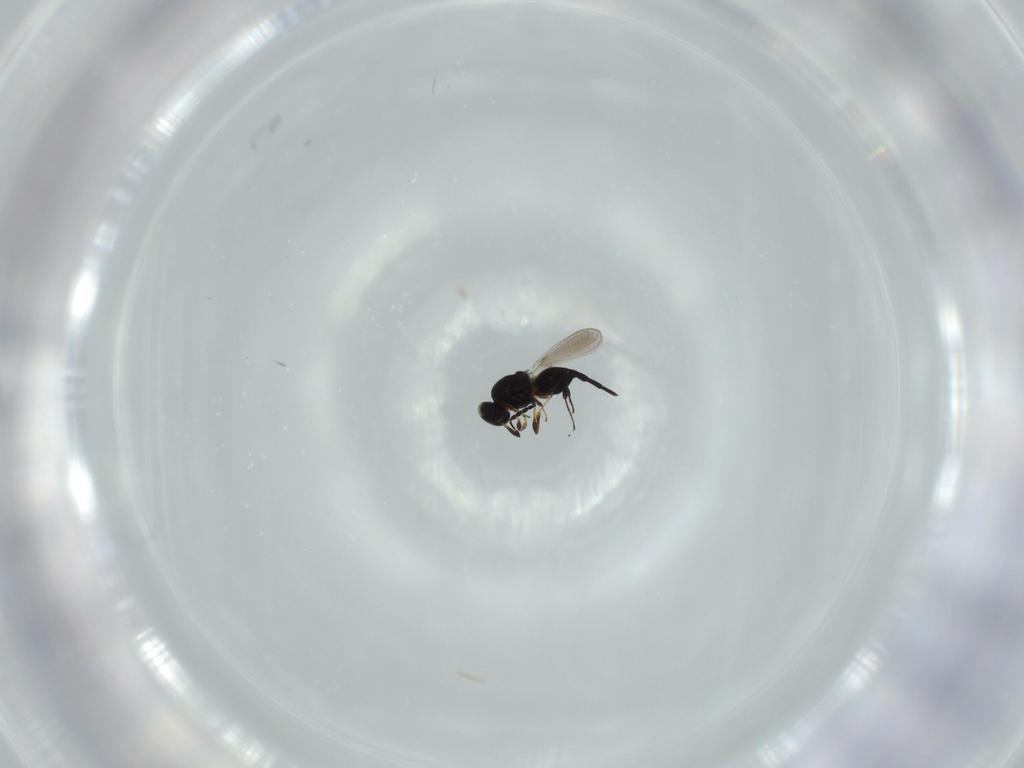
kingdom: Animalia
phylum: Arthropoda
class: Insecta
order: Hymenoptera
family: Platygastridae
